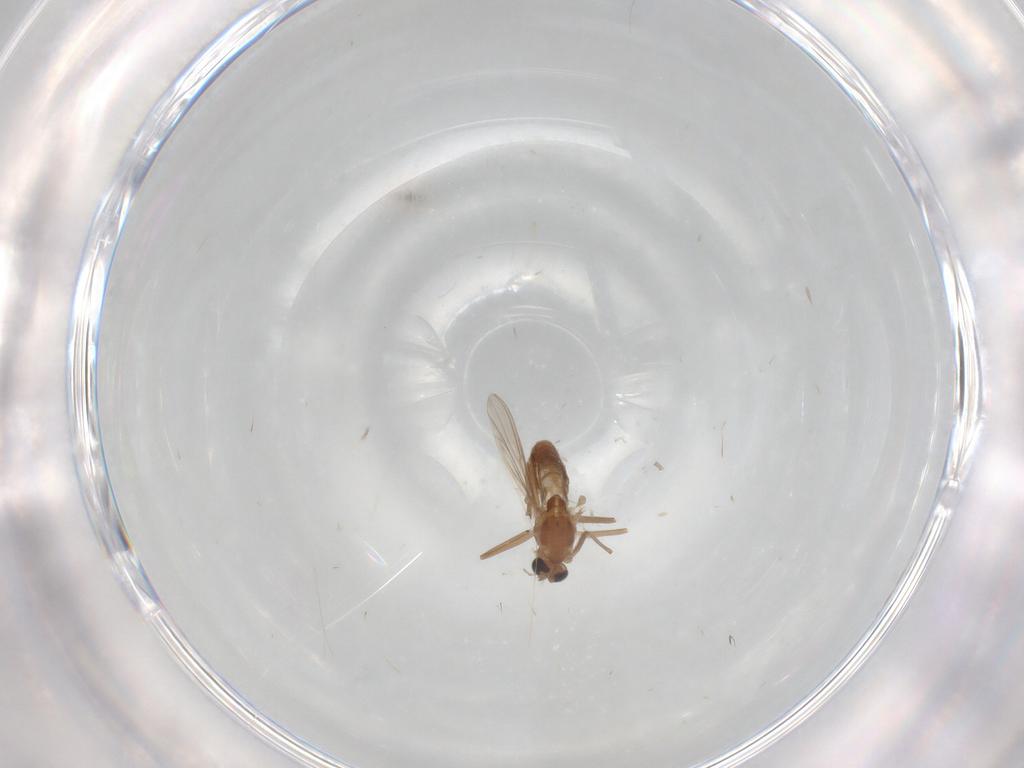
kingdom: Animalia
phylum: Arthropoda
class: Insecta
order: Diptera
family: Chironomidae
